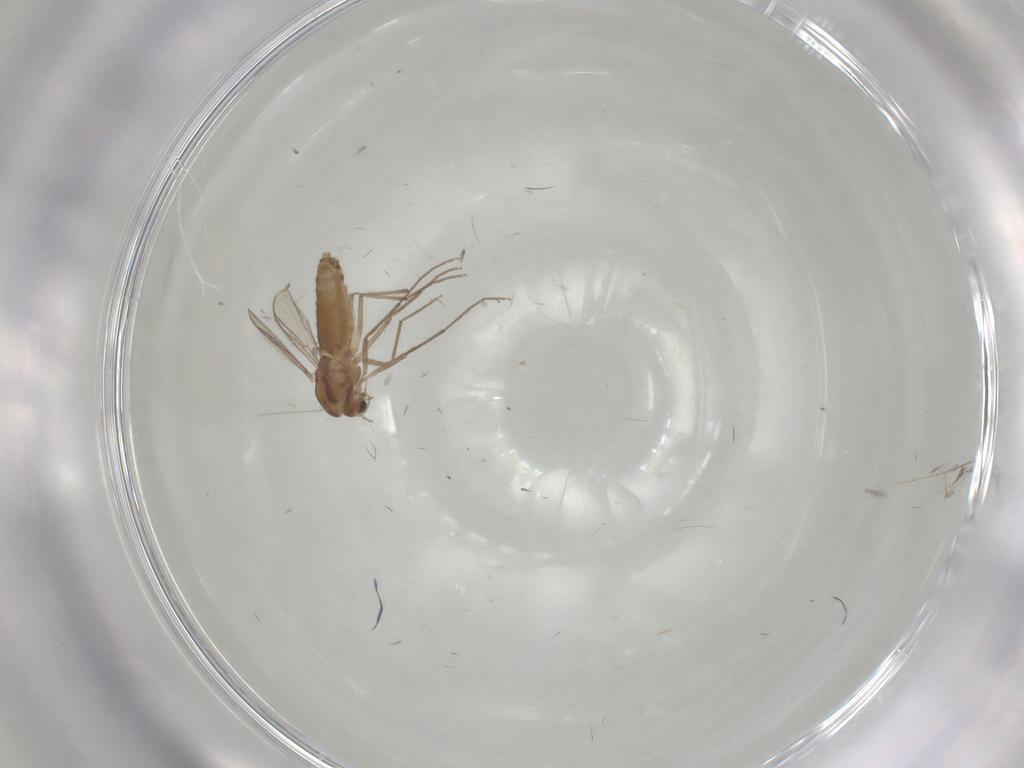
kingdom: Animalia
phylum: Arthropoda
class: Insecta
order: Diptera
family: Chironomidae
